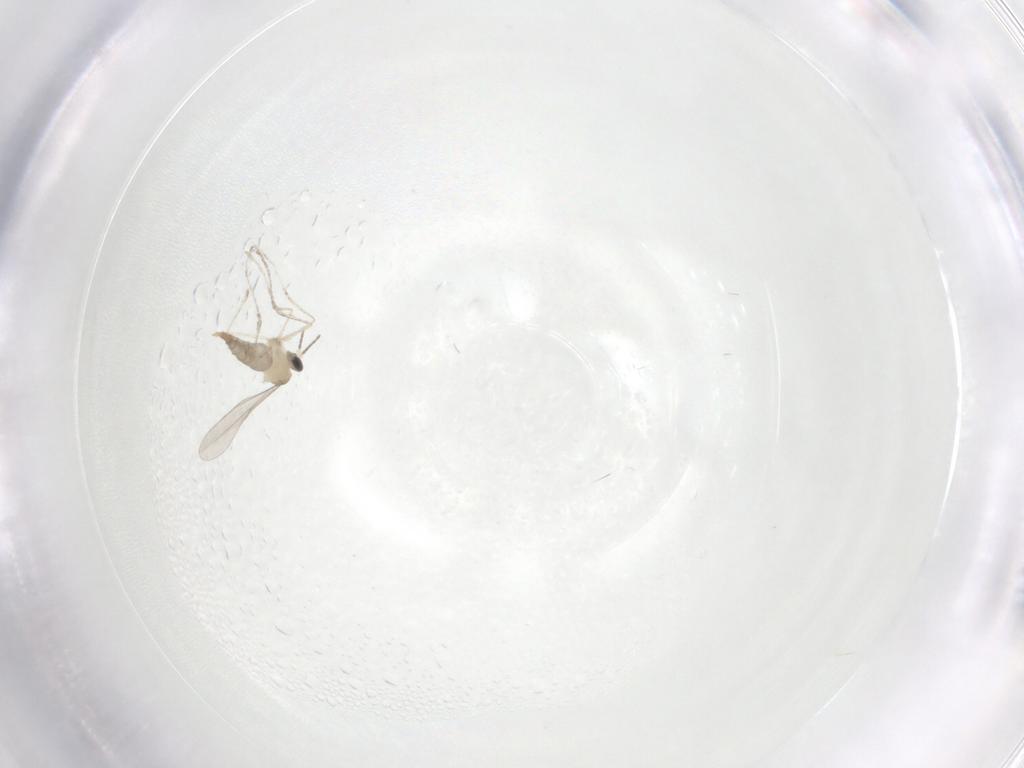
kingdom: Animalia
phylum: Arthropoda
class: Insecta
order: Diptera
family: Dolichopodidae
